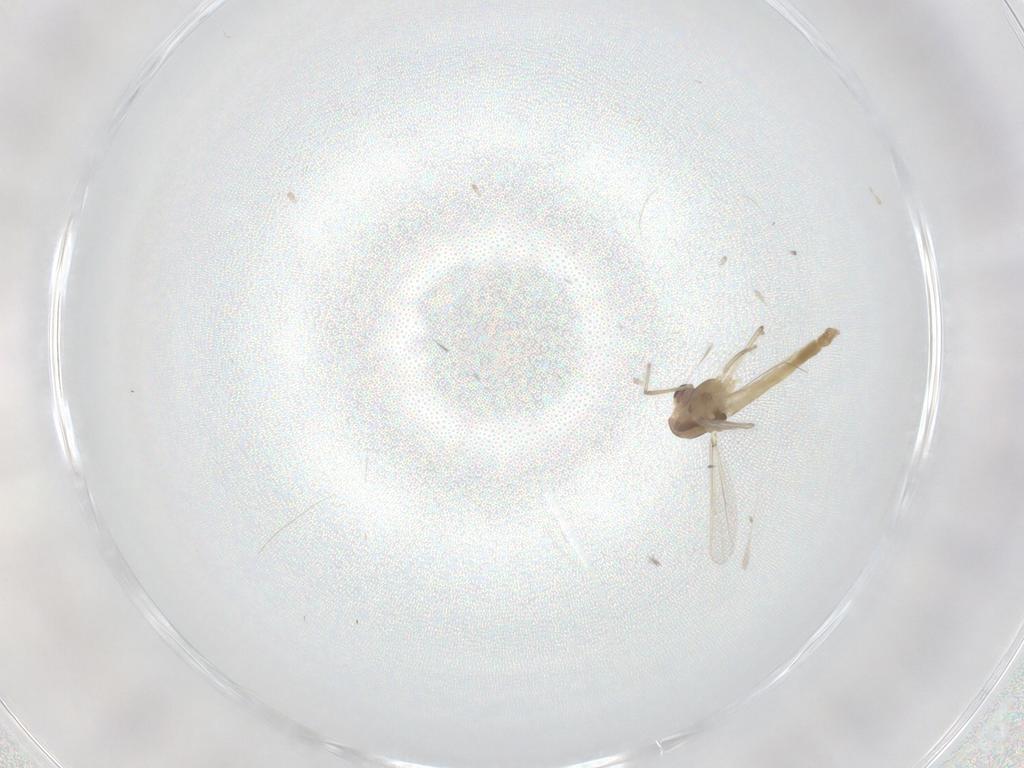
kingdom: Animalia
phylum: Arthropoda
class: Insecta
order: Diptera
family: Chironomidae
